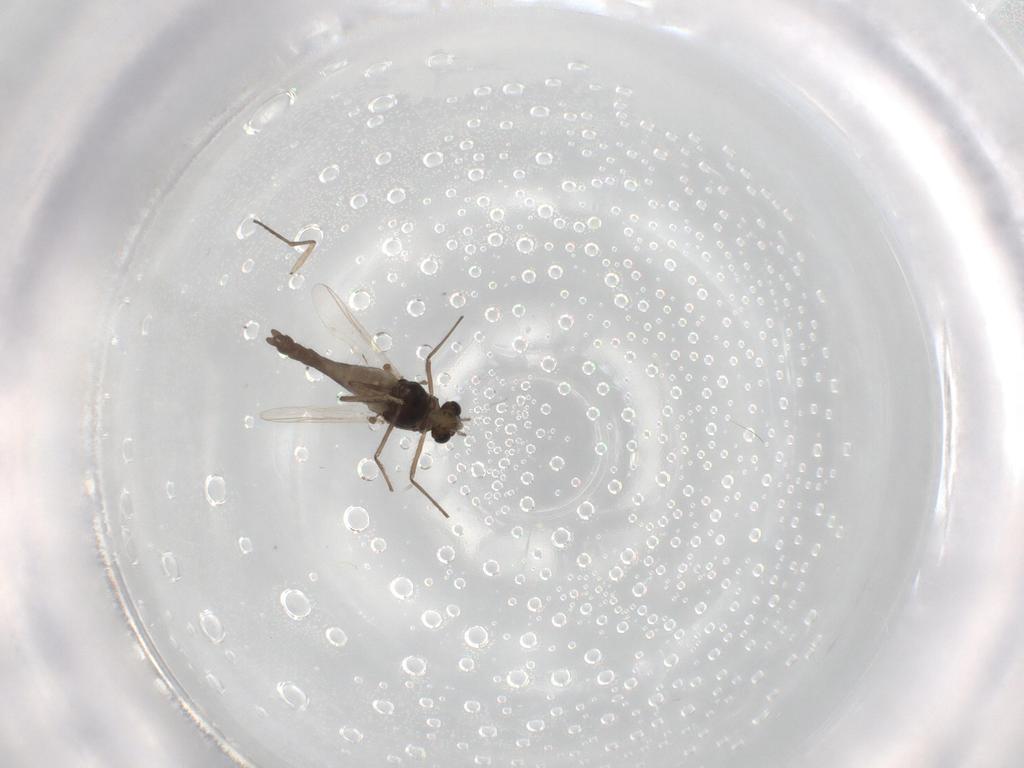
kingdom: Animalia
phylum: Arthropoda
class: Insecta
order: Diptera
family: Chironomidae
